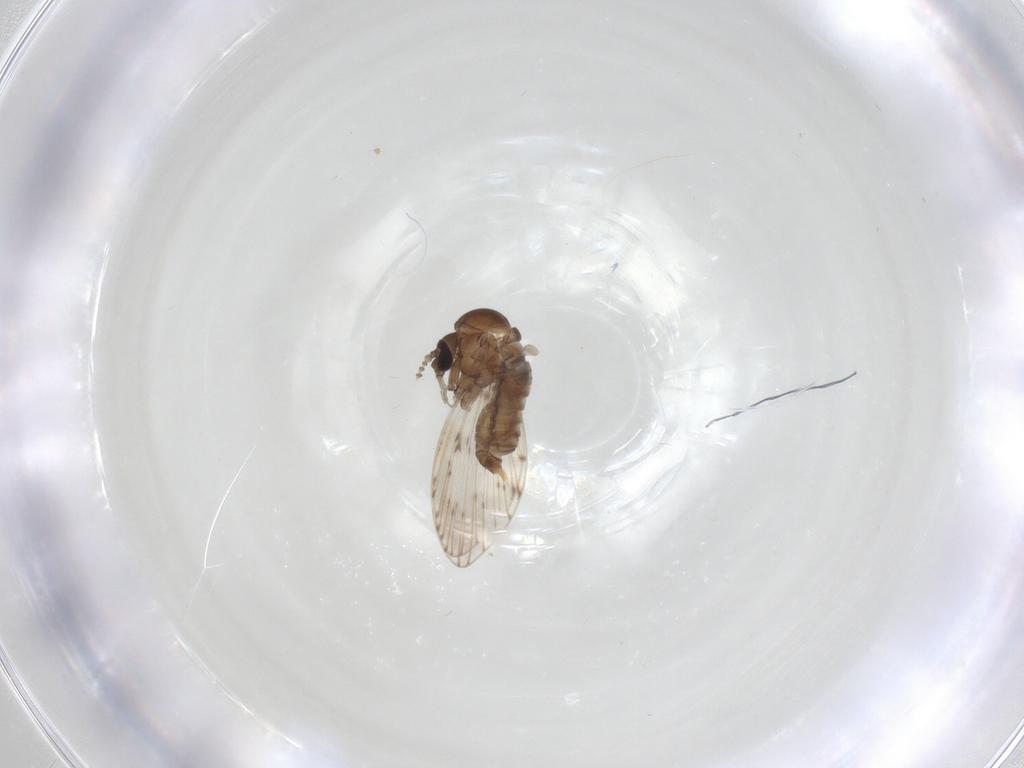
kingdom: Animalia
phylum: Arthropoda
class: Insecta
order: Diptera
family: Psychodidae
